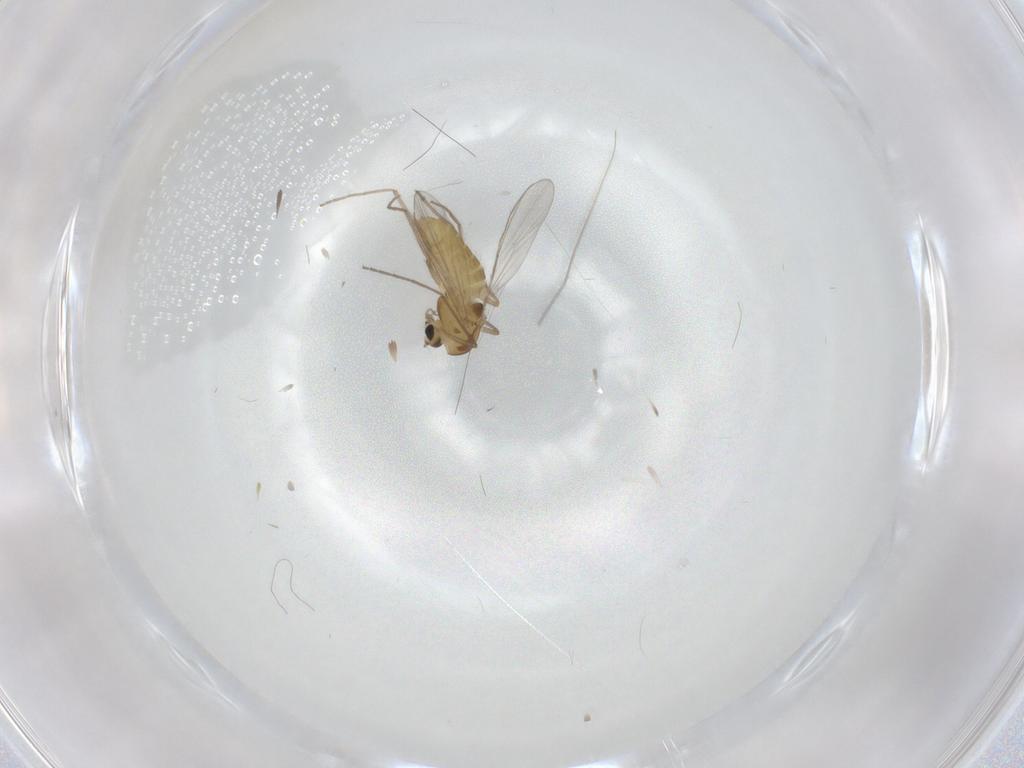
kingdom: Animalia
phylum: Arthropoda
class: Insecta
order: Diptera
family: Chironomidae
